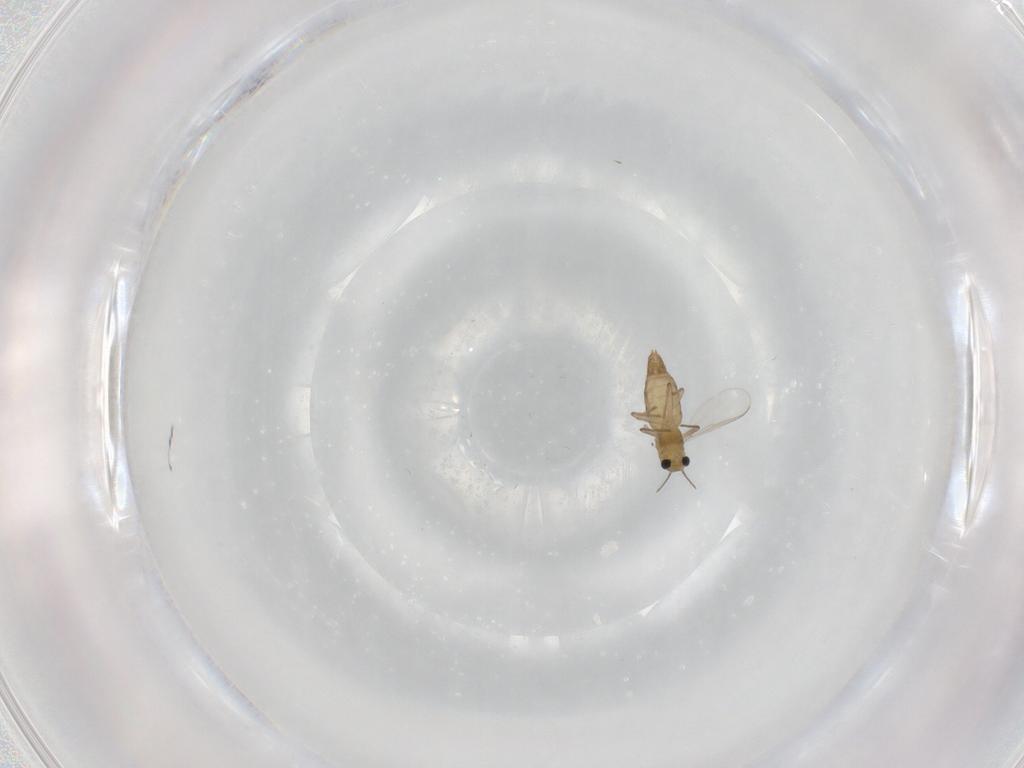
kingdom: Animalia
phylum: Arthropoda
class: Insecta
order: Diptera
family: Chironomidae
